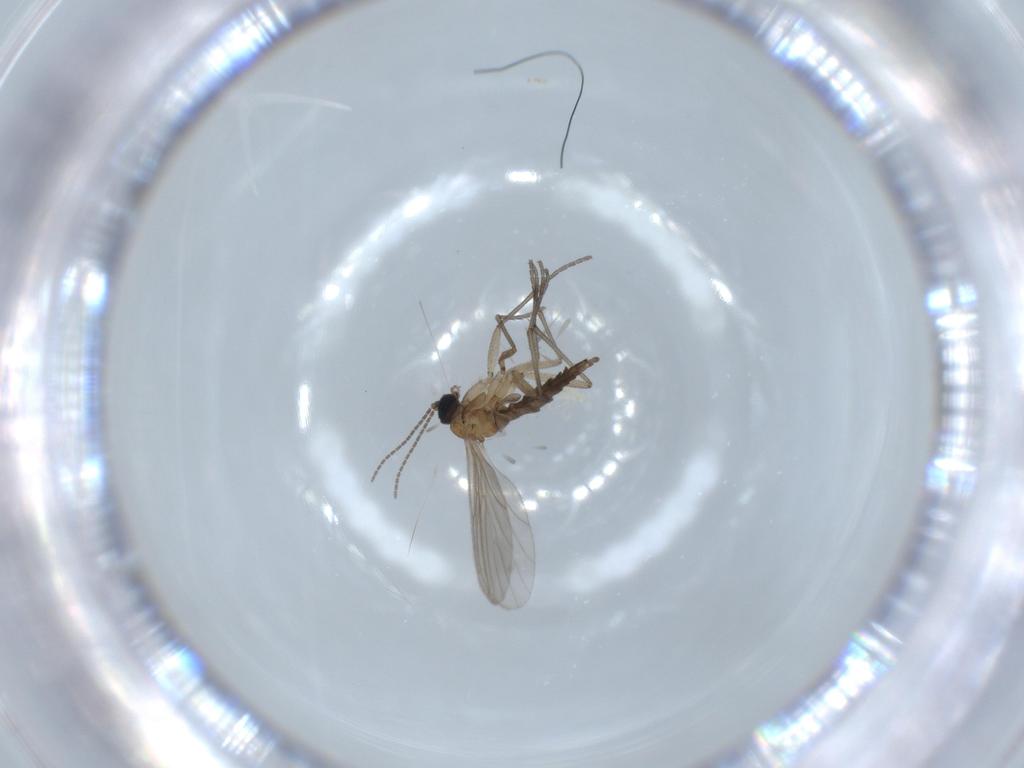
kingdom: Animalia
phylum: Arthropoda
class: Insecta
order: Diptera
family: Sciaridae
